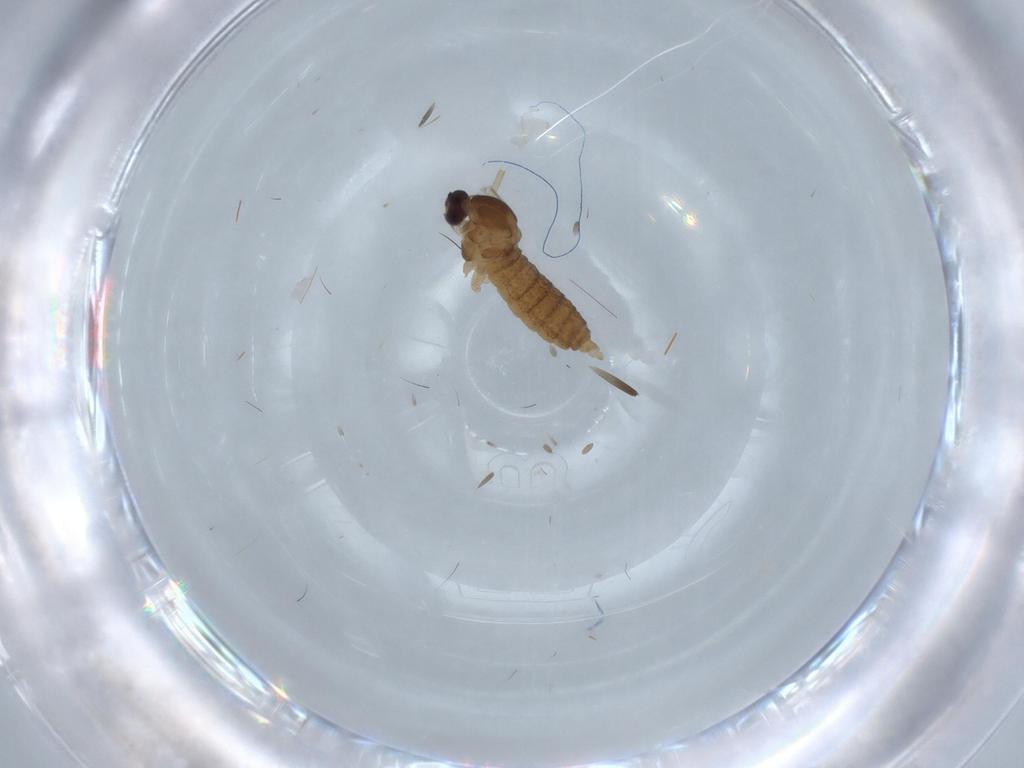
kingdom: Animalia
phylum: Arthropoda
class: Insecta
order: Diptera
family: Cecidomyiidae
